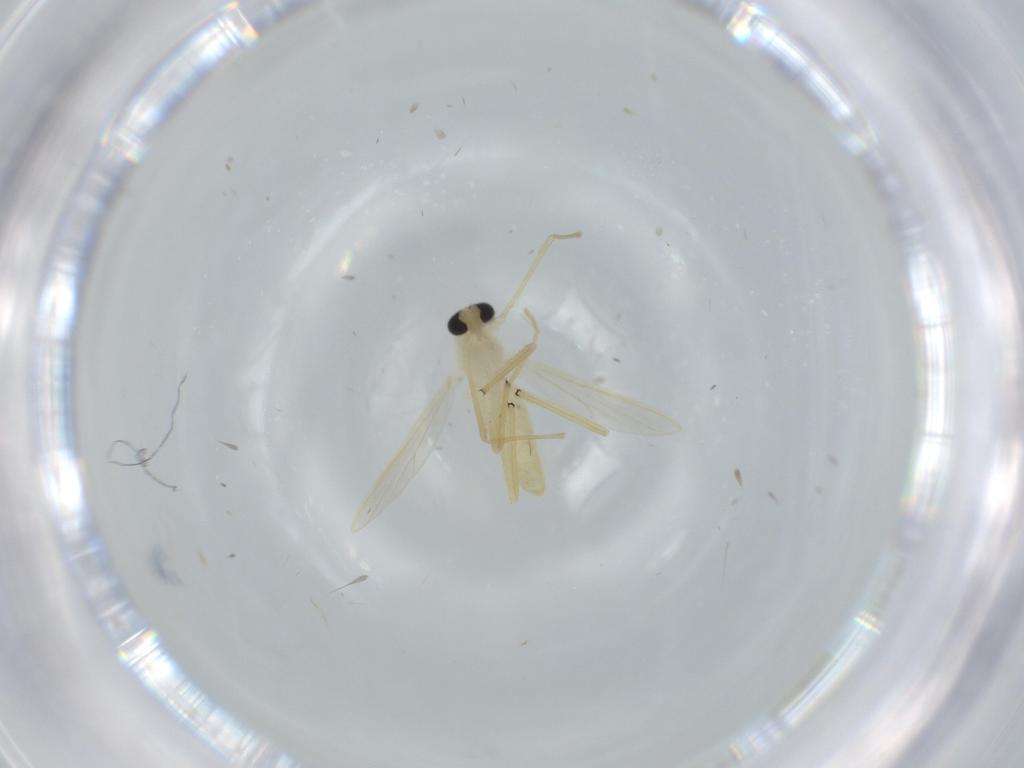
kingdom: Animalia
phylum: Arthropoda
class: Insecta
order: Diptera
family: Chironomidae
